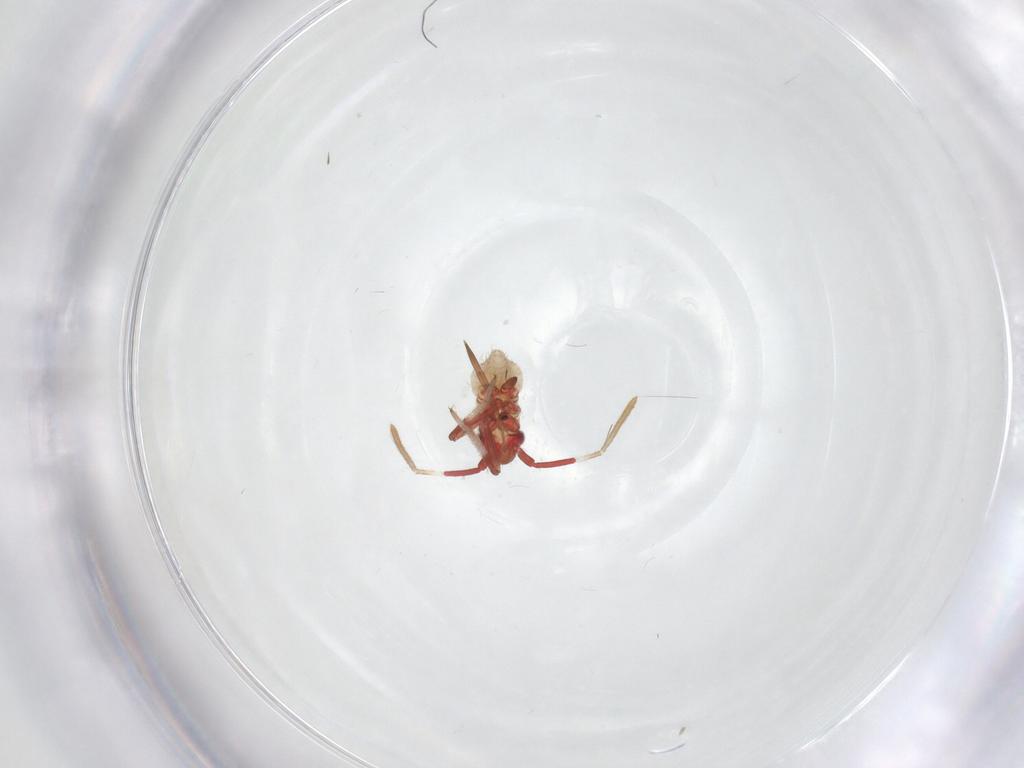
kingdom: Animalia
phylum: Arthropoda
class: Insecta
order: Hemiptera
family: Miridae
